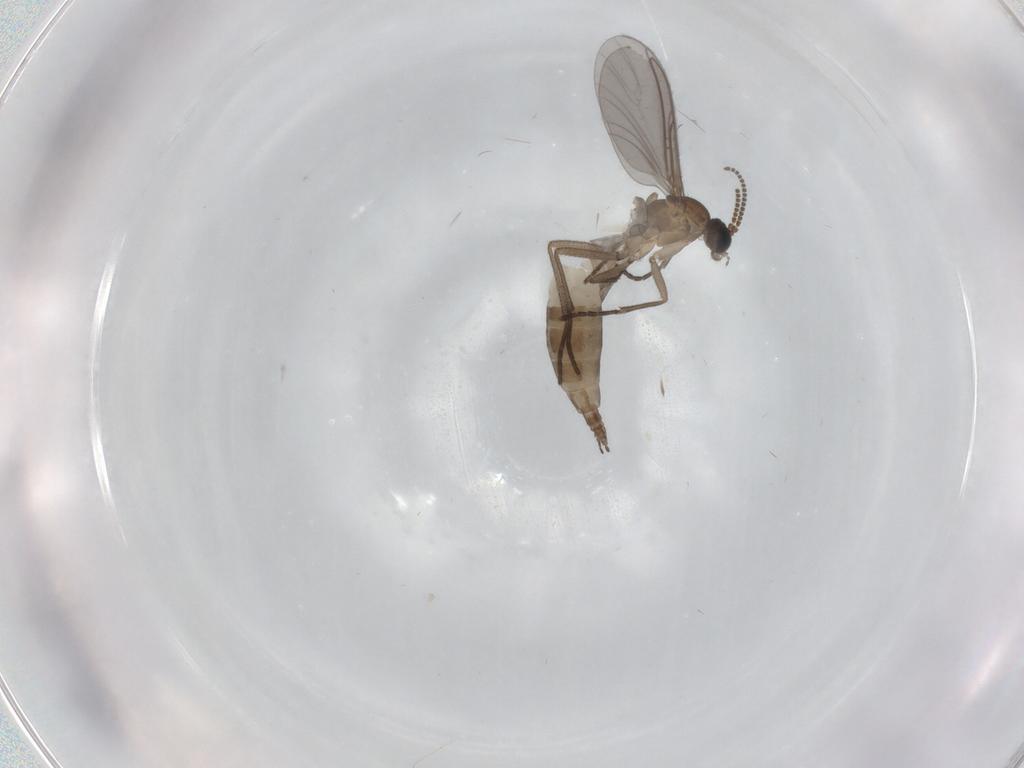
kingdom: Animalia
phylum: Arthropoda
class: Insecta
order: Diptera
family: Sciaridae
